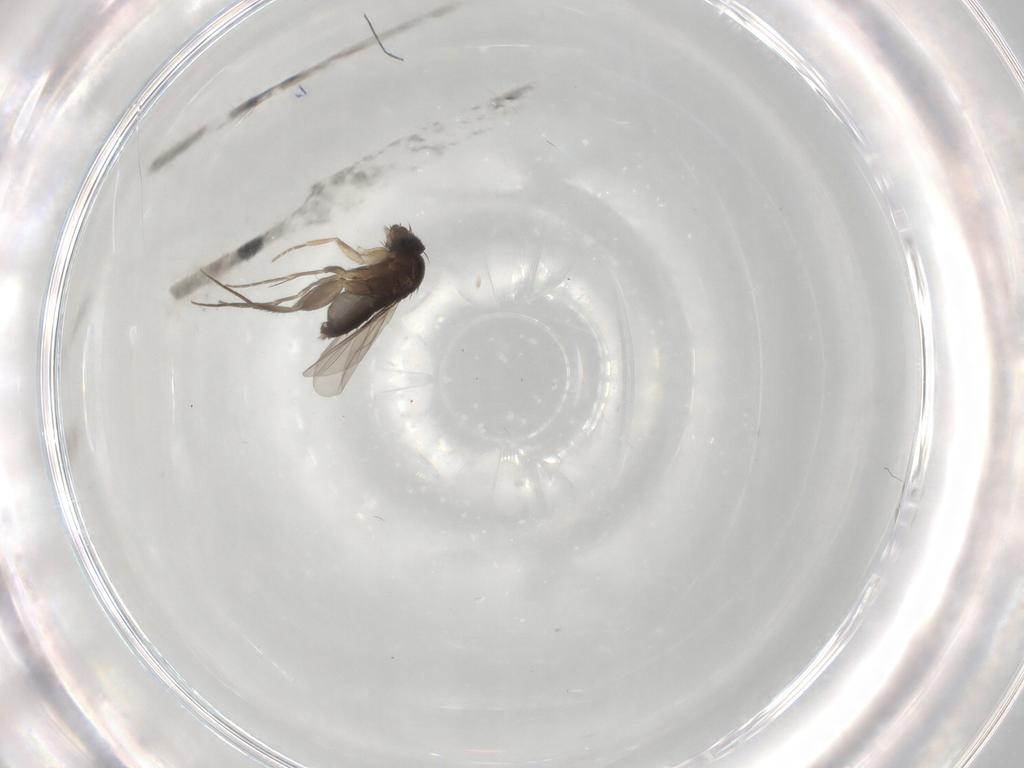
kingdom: Animalia
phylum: Arthropoda
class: Insecta
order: Diptera
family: Phoridae
